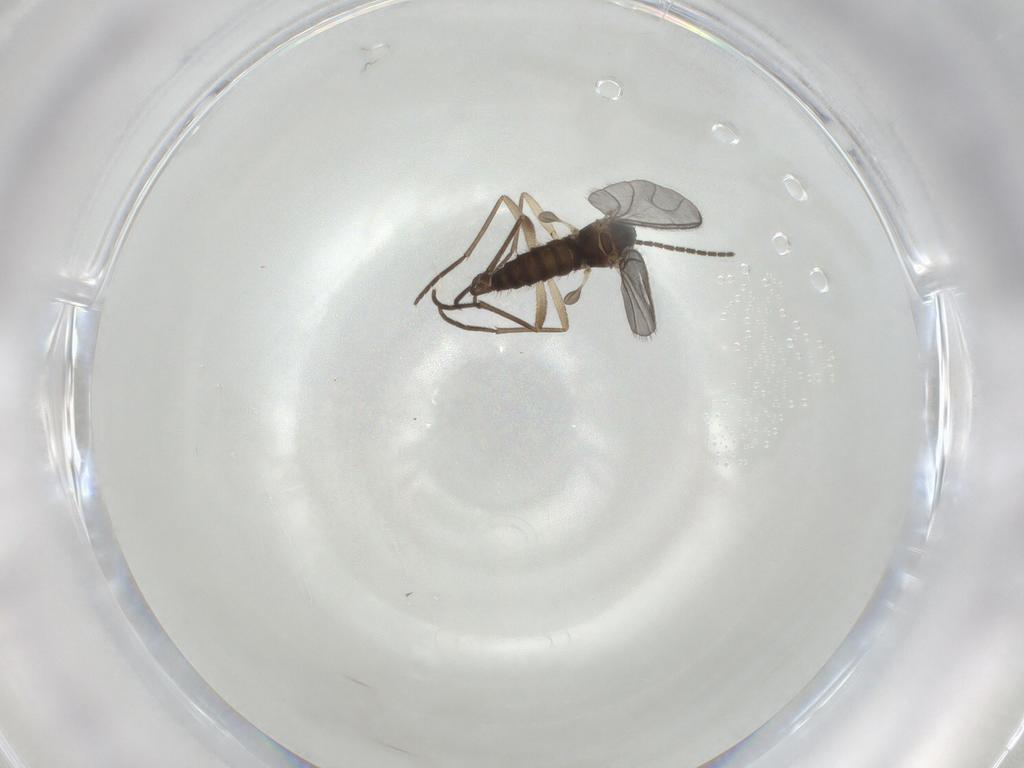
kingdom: Animalia
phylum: Arthropoda
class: Insecta
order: Diptera
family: Sciaridae
